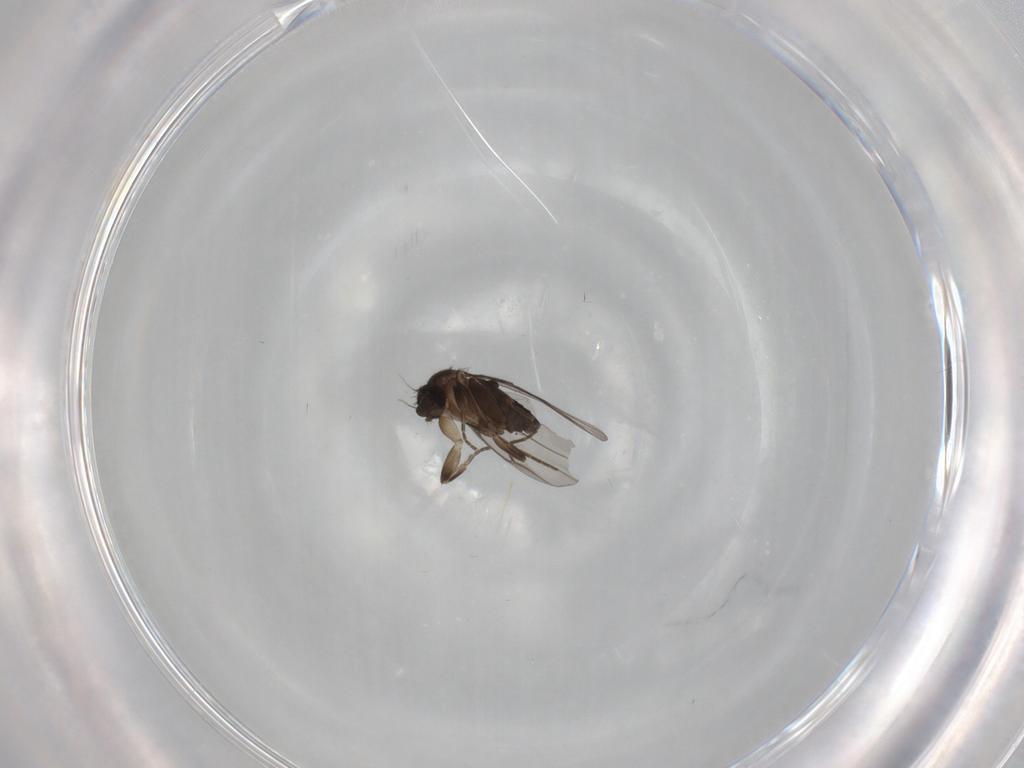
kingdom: Animalia
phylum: Arthropoda
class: Insecta
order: Diptera
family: Phoridae
